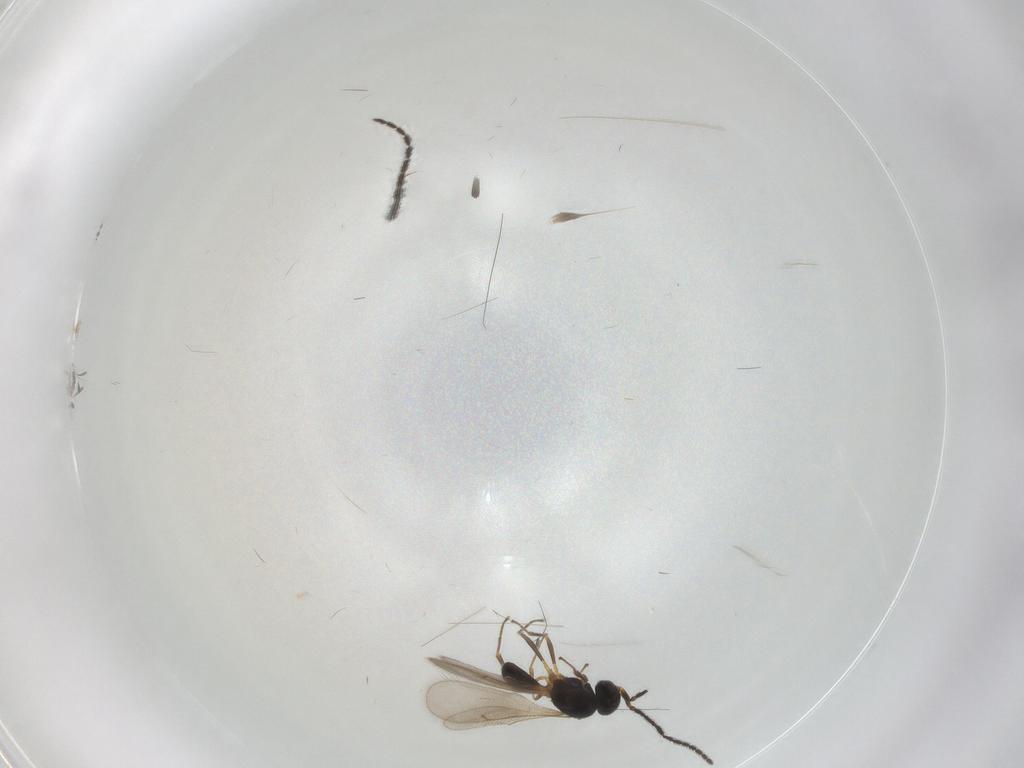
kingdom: Animalia
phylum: Arthropoda
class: Insecta
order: Hymenoptera
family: Chrysididae
